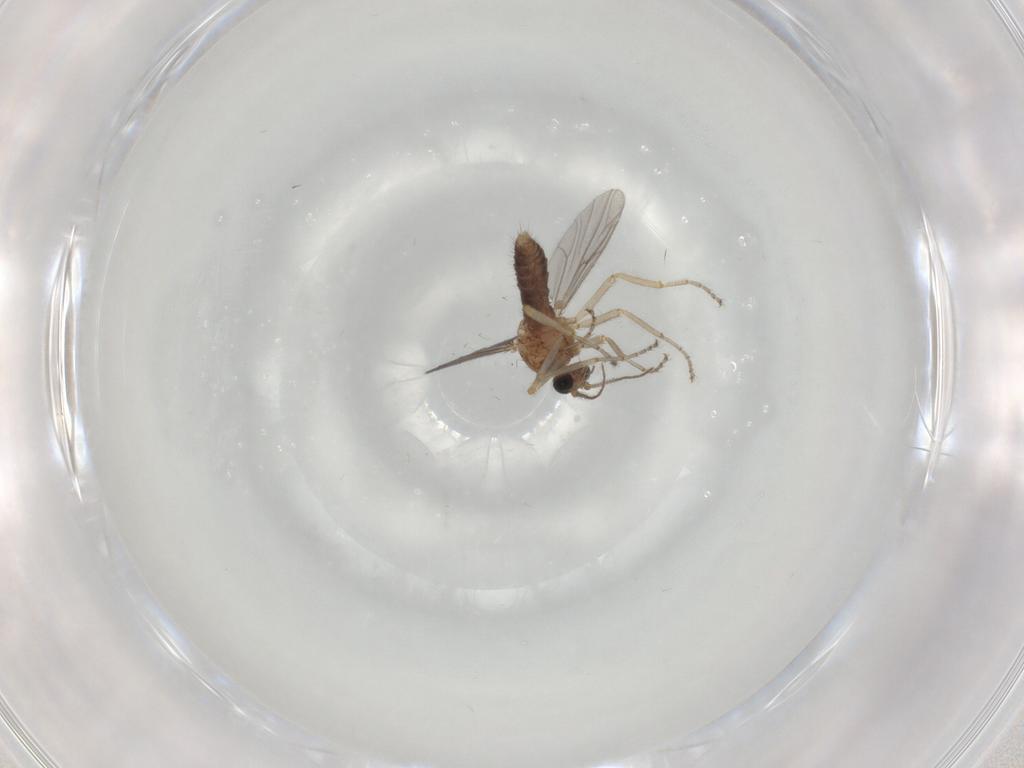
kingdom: Animalia
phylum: Arthropoda
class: Insecta
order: Diptera
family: Ceratopogonidae
